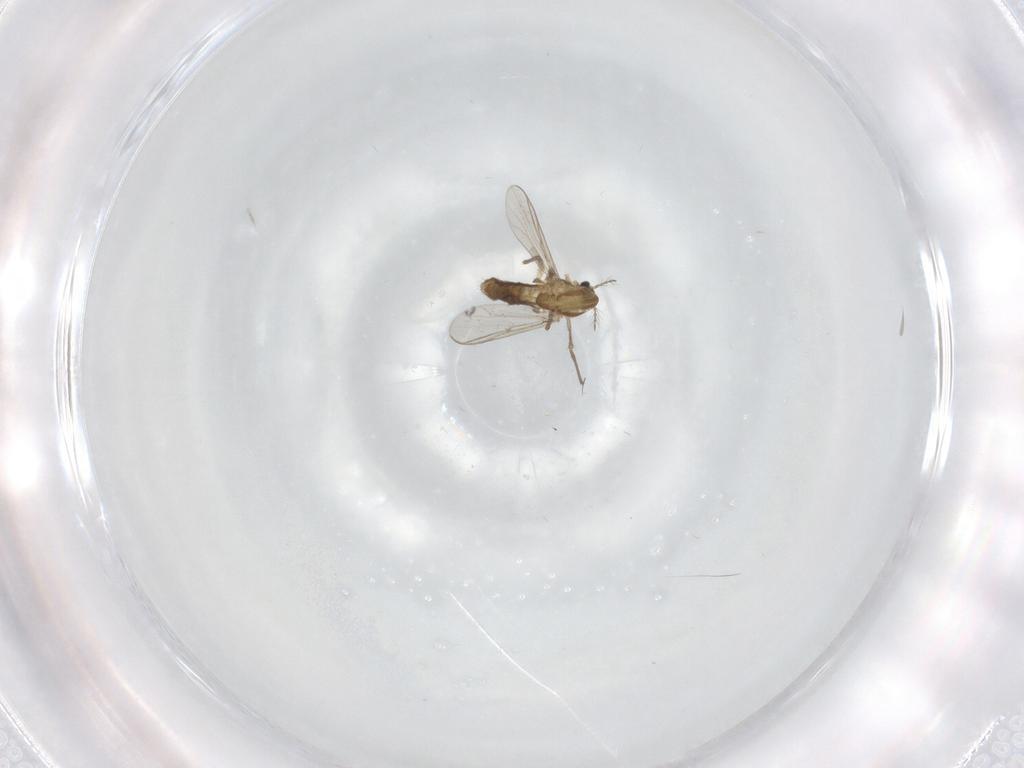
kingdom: Animalia
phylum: Arthropoda
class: Insecta
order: Diptera
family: Chironomidae
